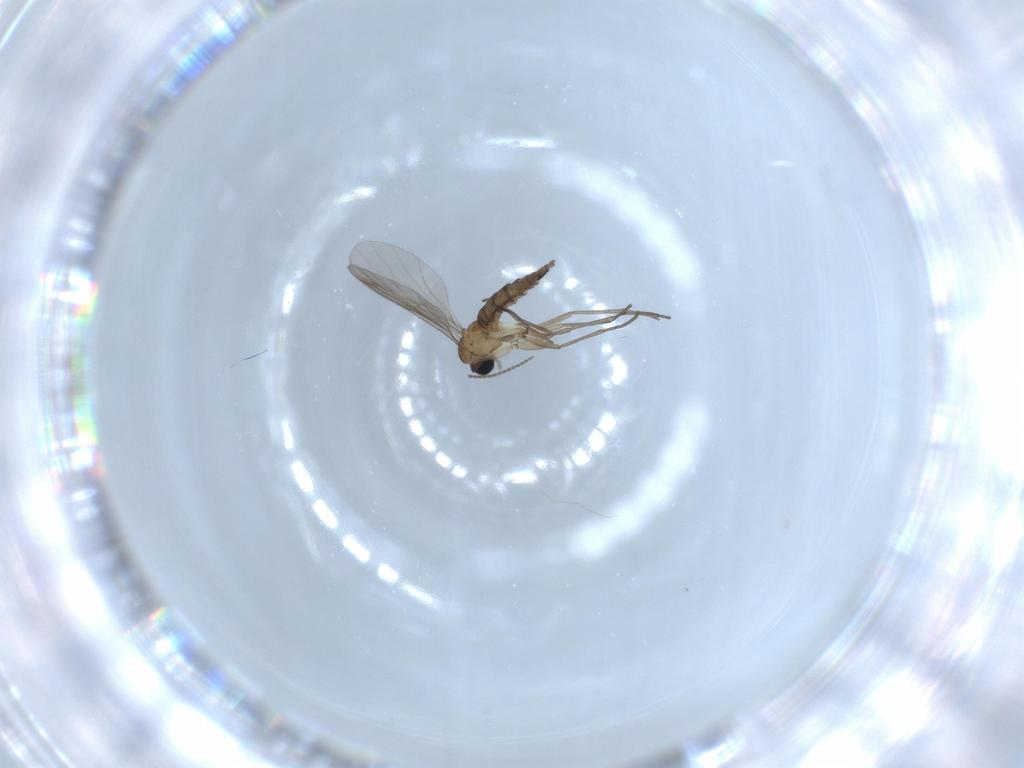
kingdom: Animalia
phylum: Arthropoda
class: Insecta
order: Diptera
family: Sciaridae
